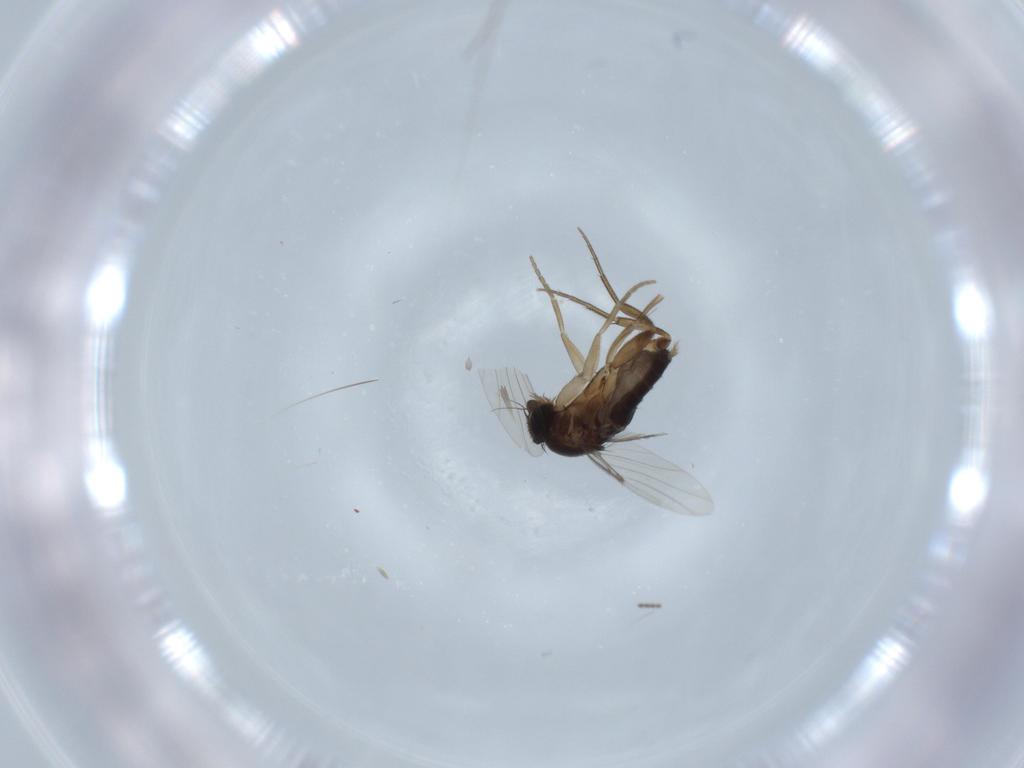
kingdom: Animalia
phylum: Arthropoda
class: Insecta
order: Diptera
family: Phoridae
